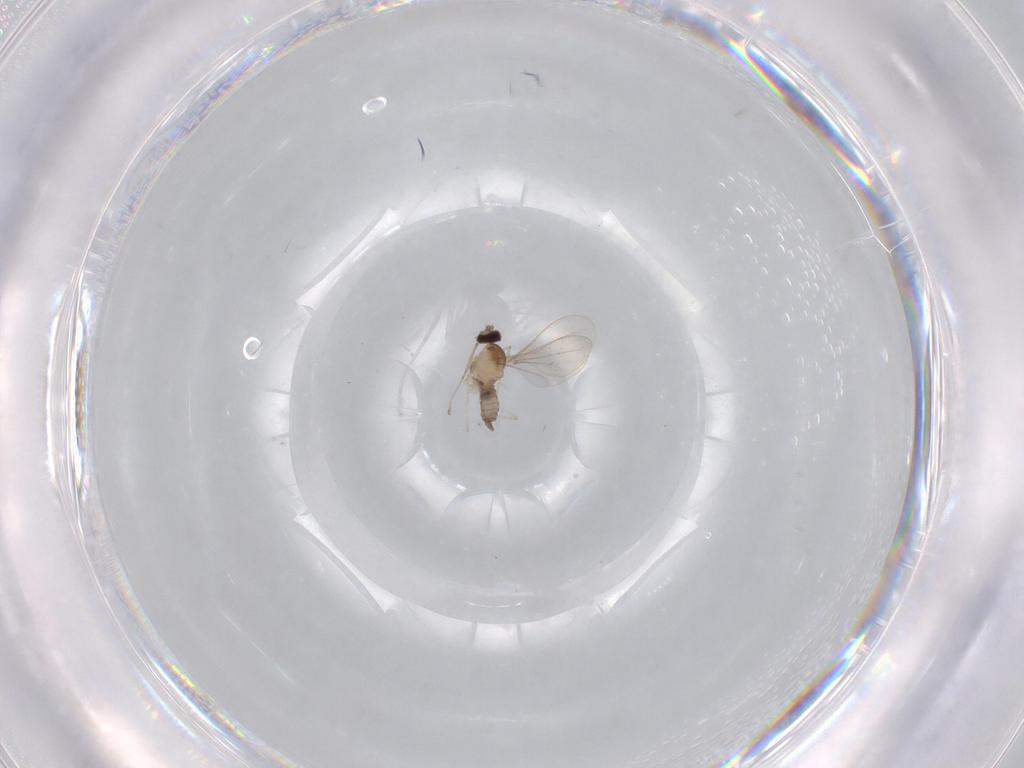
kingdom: Animalia
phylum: Arthropoda
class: Insecta
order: Diptera
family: Cecidomyiidae
